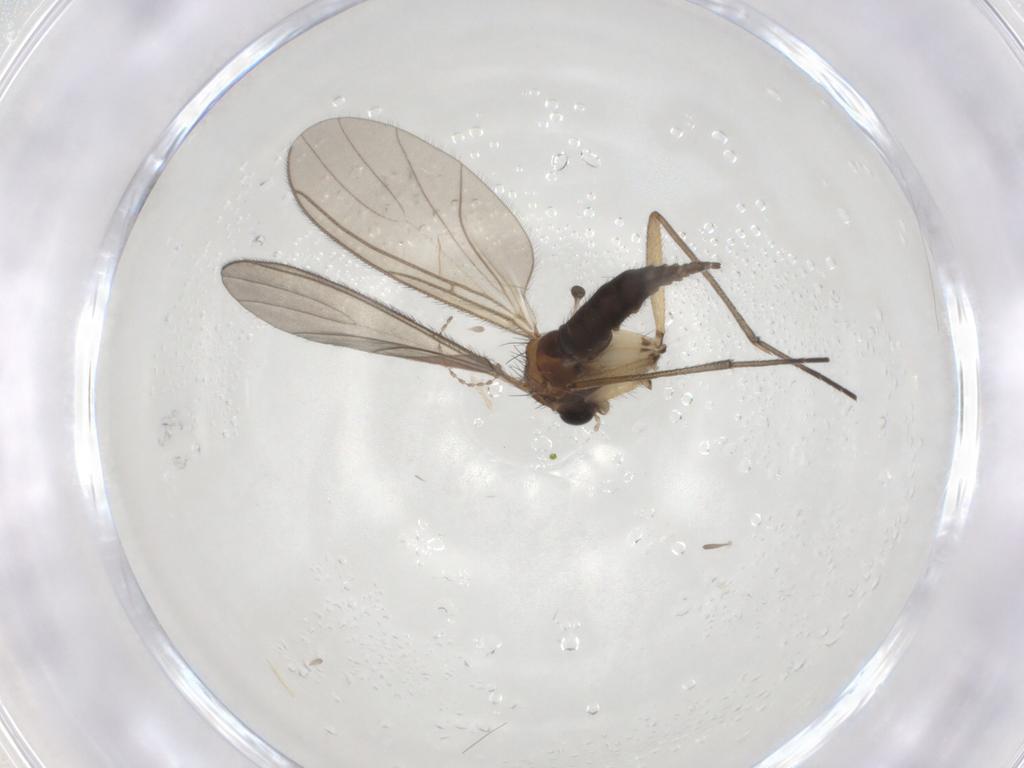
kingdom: Animalia
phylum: Arthropoda
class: Insecta
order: Diptera
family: Sciaridae
